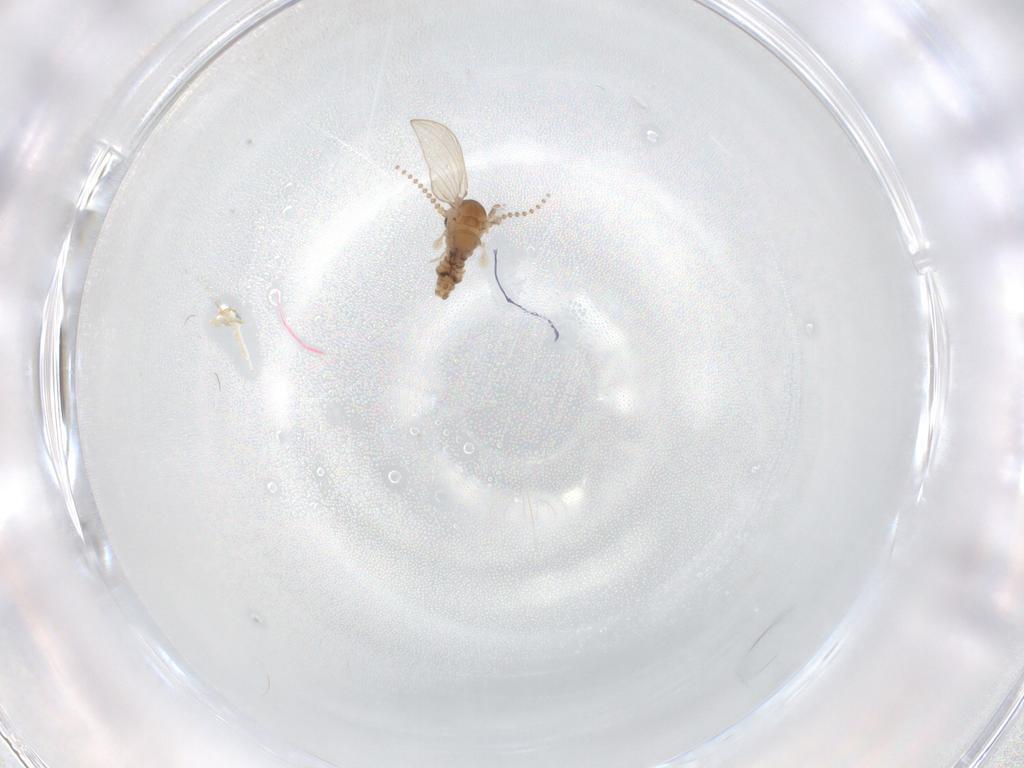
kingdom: Animalia
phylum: Arthropoda
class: Insecta
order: Diptera
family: Psychodidae
